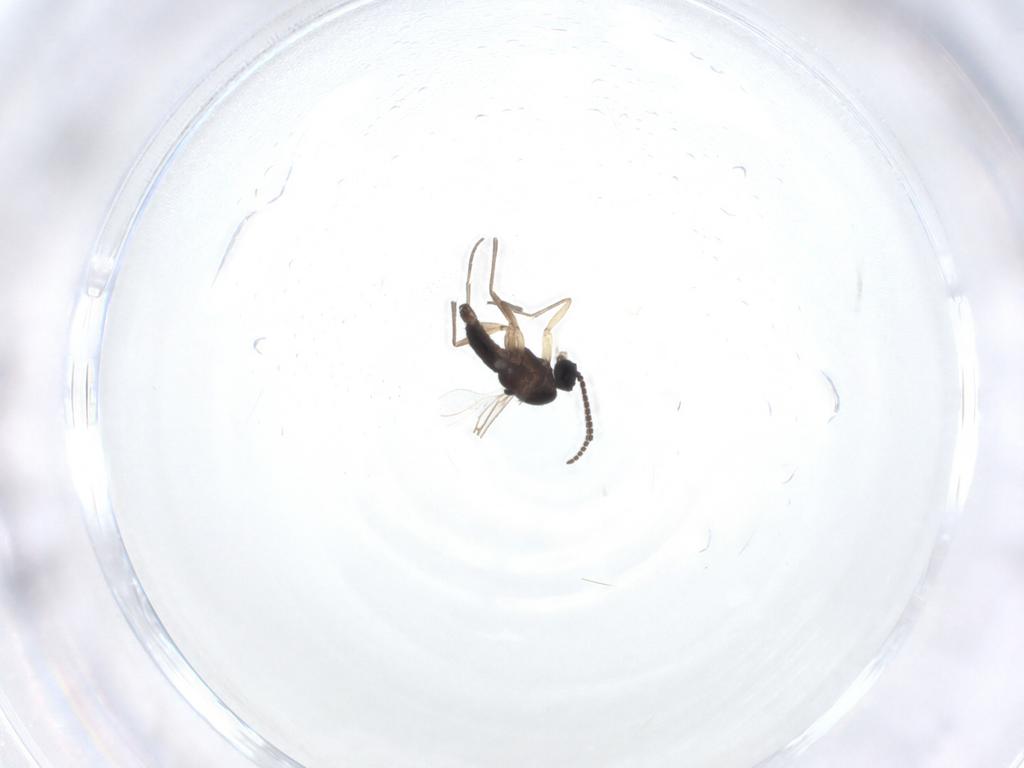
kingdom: Animalia
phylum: Arthropoda
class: Insecta
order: Diptera
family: Sciaridae
